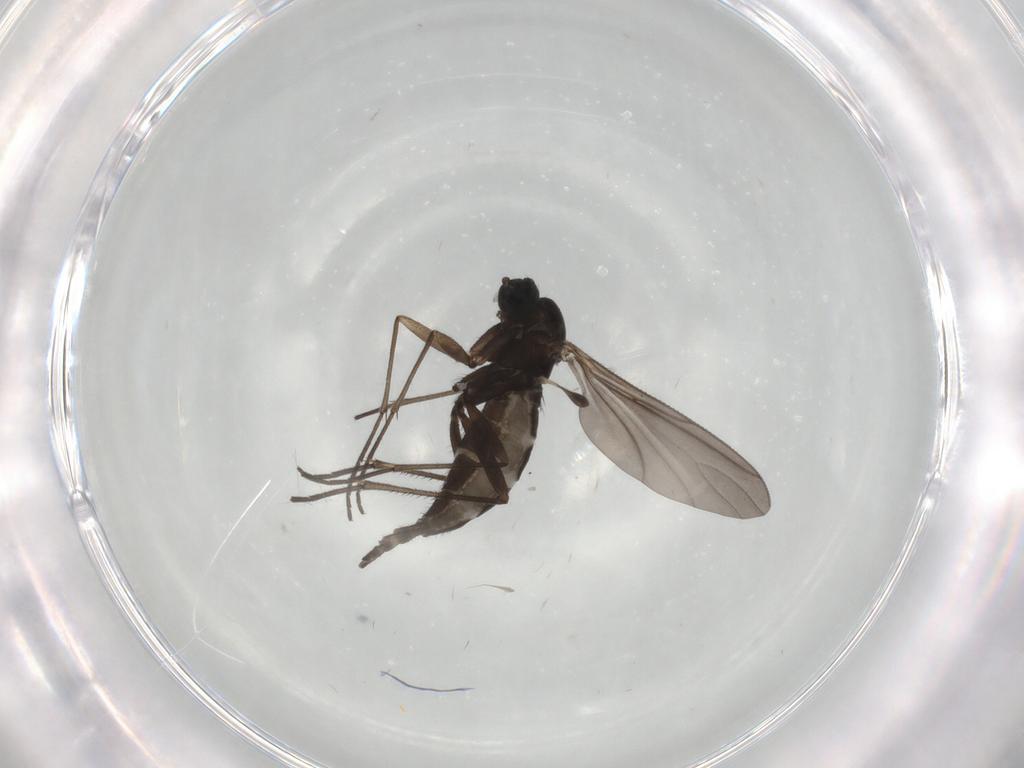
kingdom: Animalia
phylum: Arthropoda
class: Insecta
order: Diptera
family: Sciaridae
